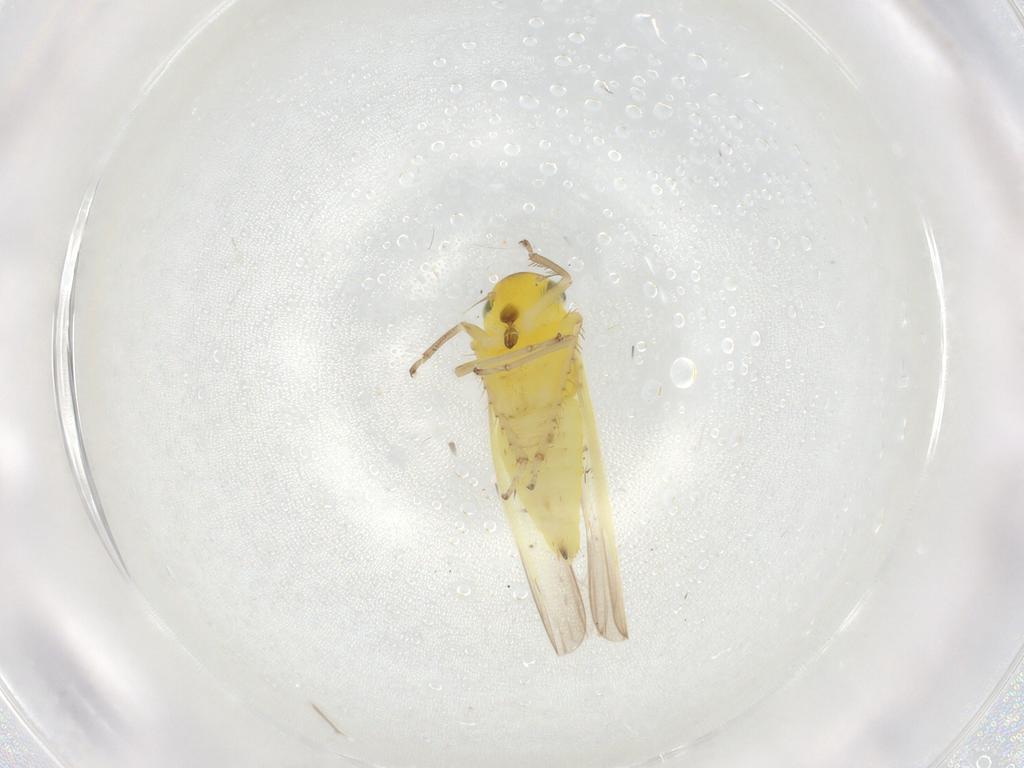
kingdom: Animalia
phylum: Arthropoda
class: Insecta
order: Hemiptera
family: Cicadellidae
